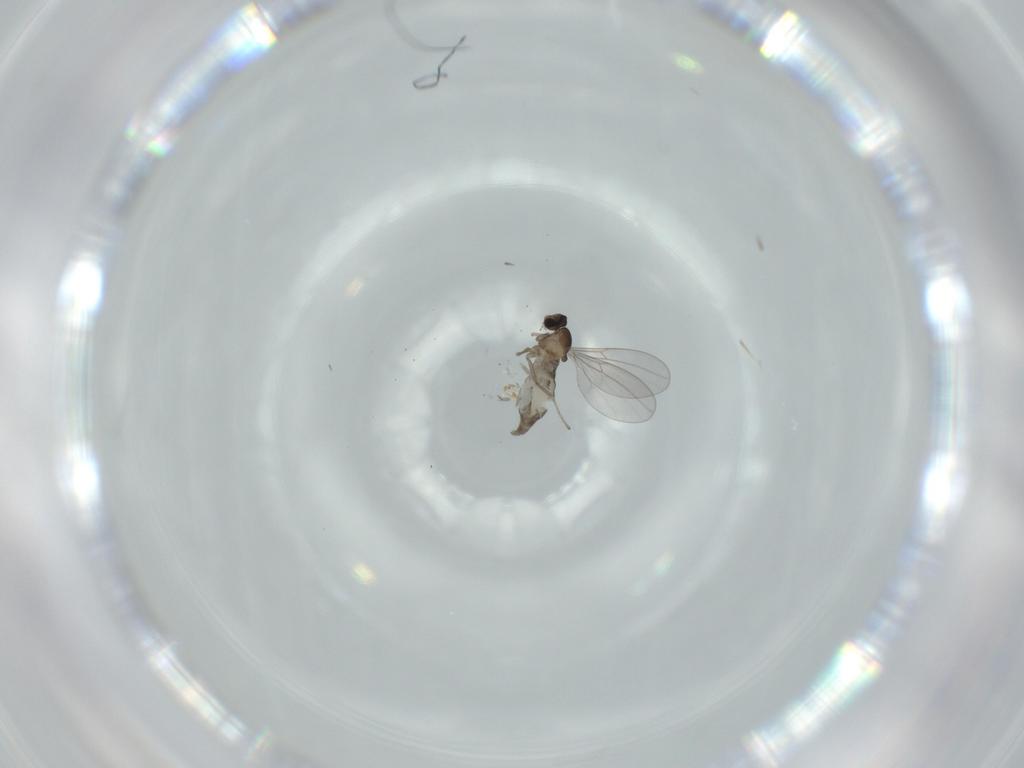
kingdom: Animalia
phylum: Arthropoda
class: Insecta
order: Diptera
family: Cecidomyiidae
